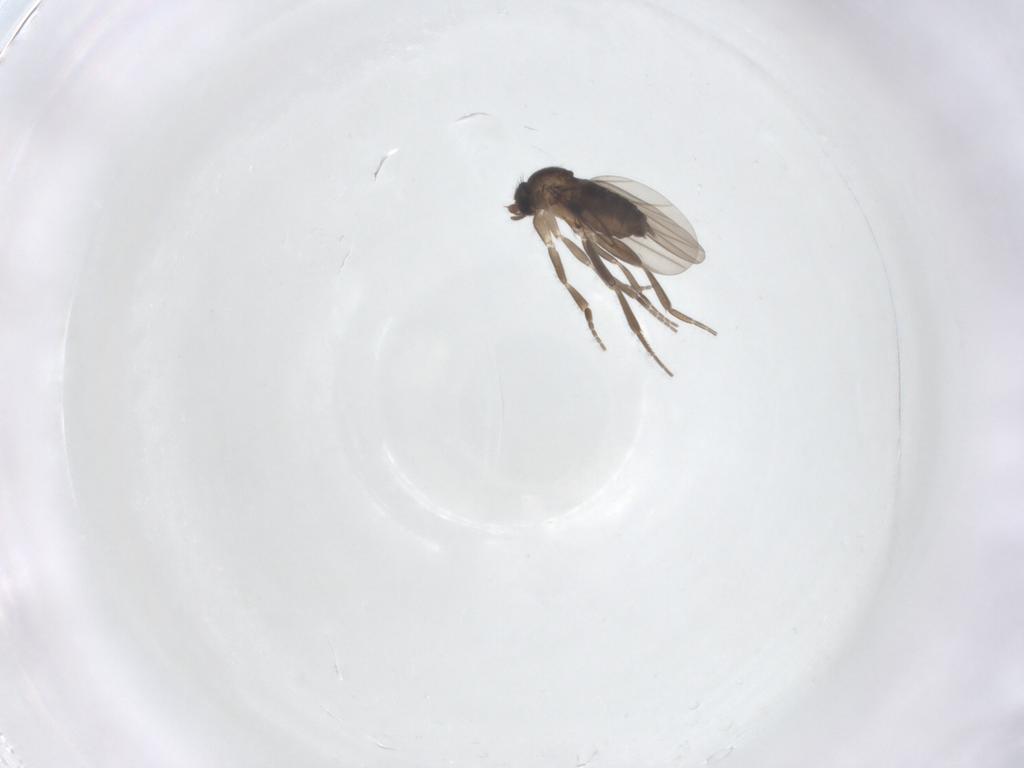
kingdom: Animalia
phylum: Arthropoda
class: Insecta
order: Diptera
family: Phoridae
